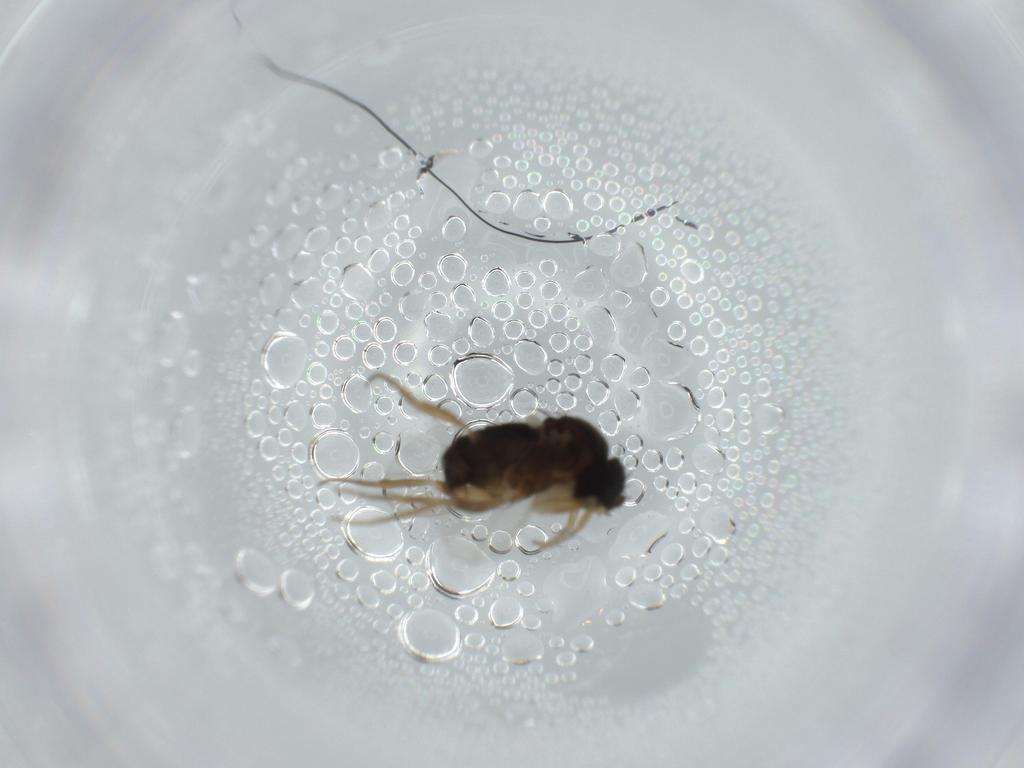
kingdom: Animalia
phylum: Arthropoda
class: Insecta
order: Diptera
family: Phoridae
